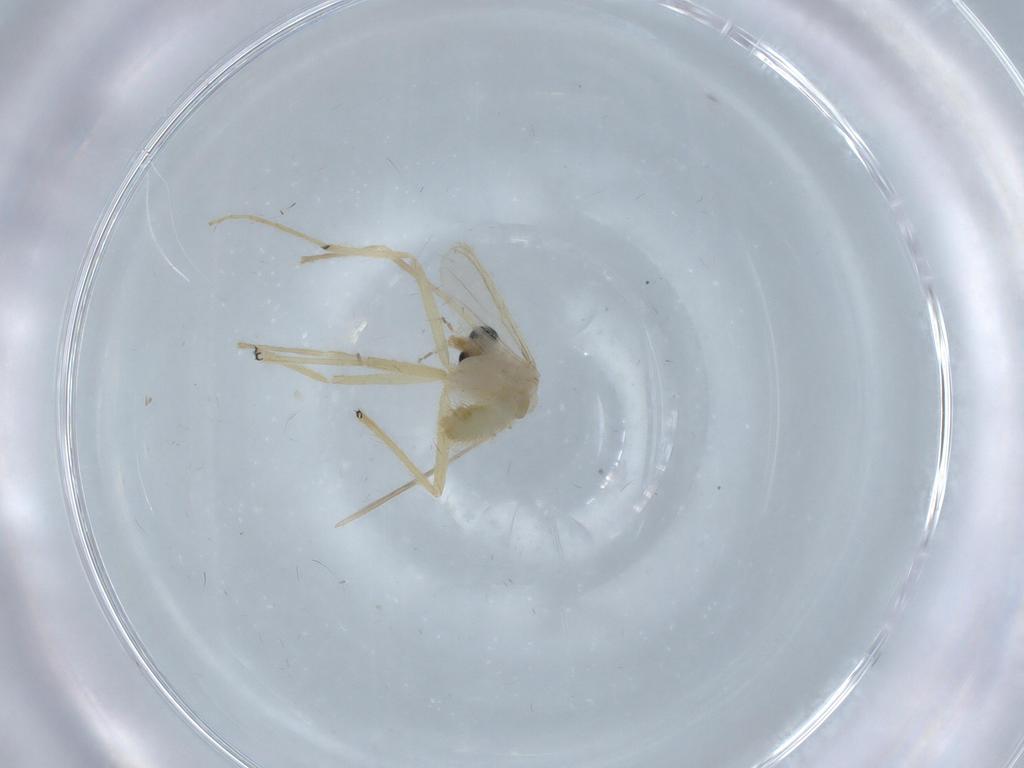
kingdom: Animalia
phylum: Arthropoda
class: Insecta
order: Diptera
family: Chironomidae
